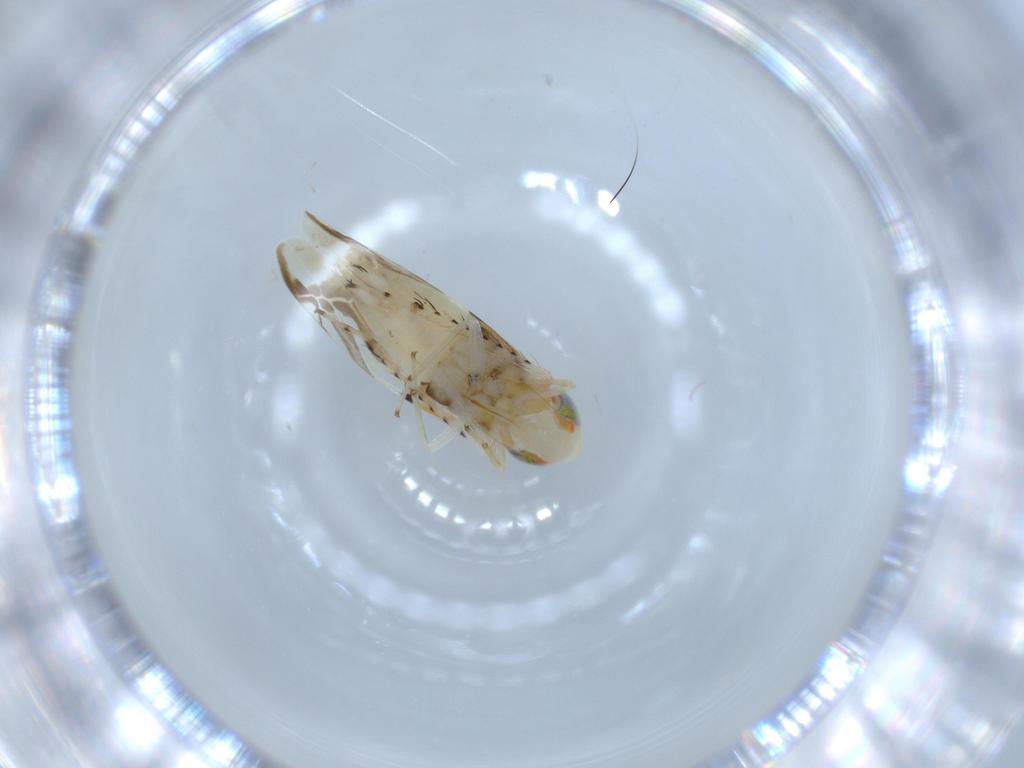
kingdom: Animalia
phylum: Arthropoda
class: Insecta
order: Hemiptera
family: Cicadellidae
